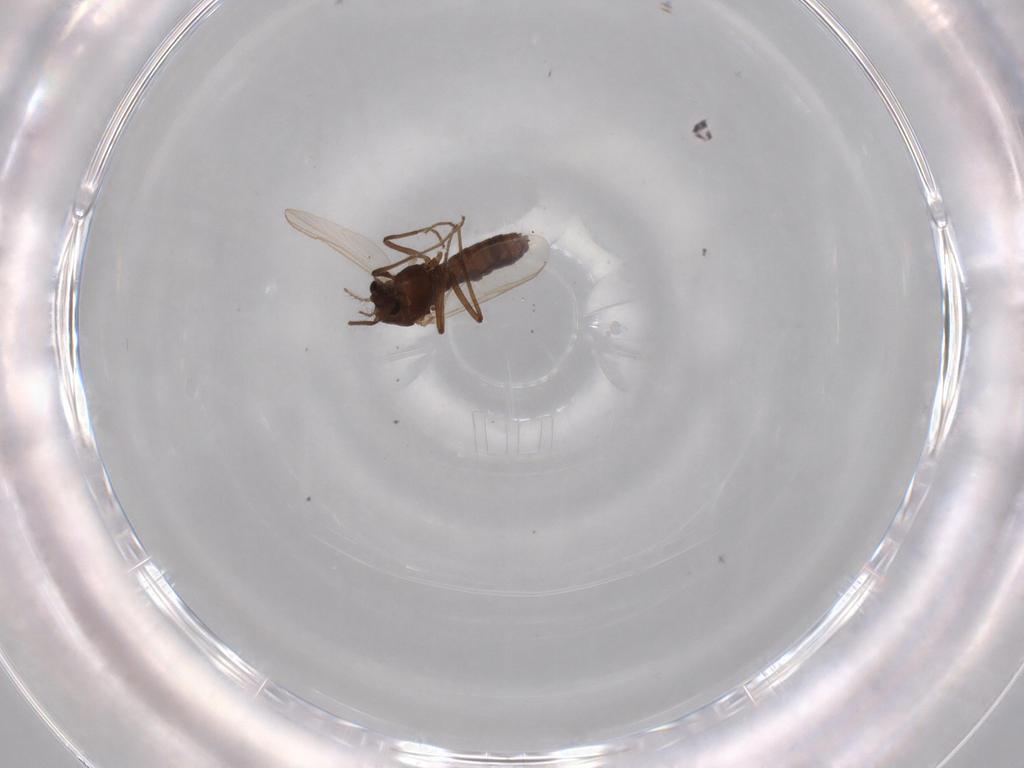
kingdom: Animalia
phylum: Arthropoda
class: Insecta
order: Diptera
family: Chironomidae
